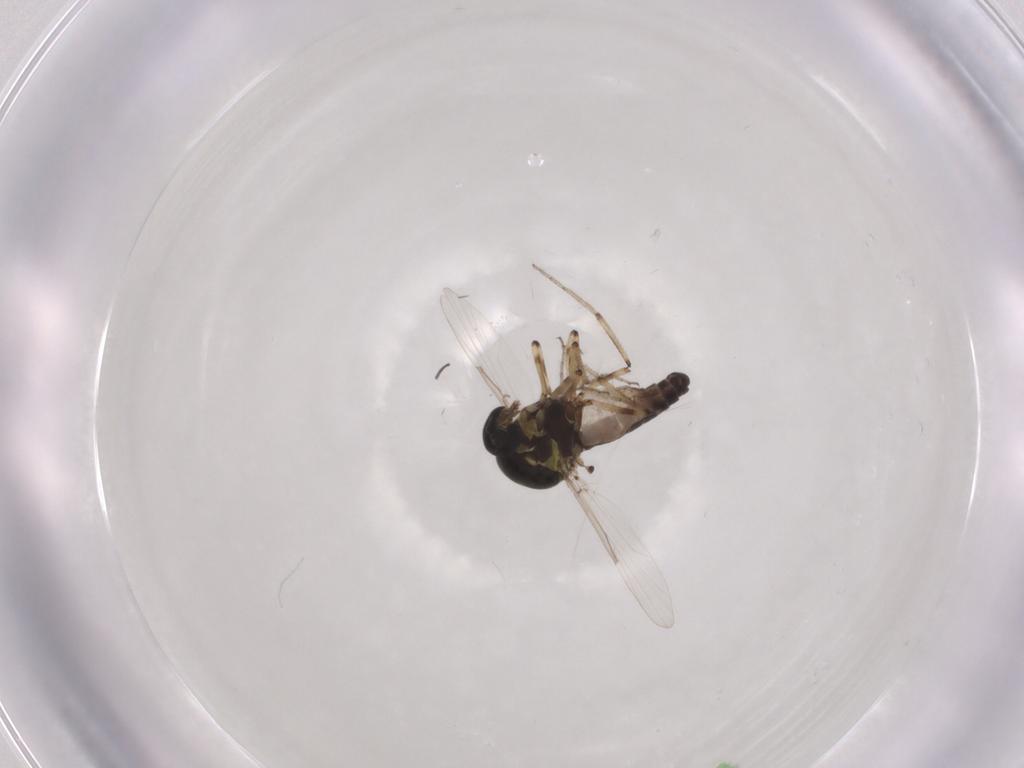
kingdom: Animalia
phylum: Arthropoda
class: Insecta
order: Diptera
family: Ceratopogonidae
